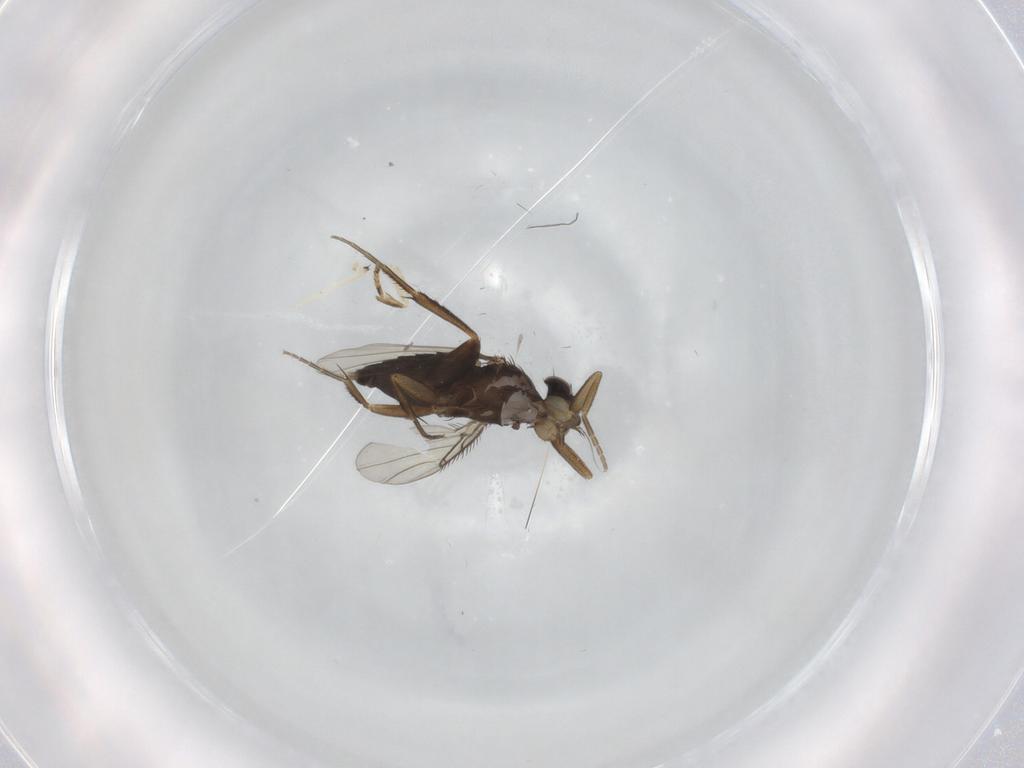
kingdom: Animalia
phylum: Arthropoda
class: Insecta
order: Diptera
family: Phoridae
